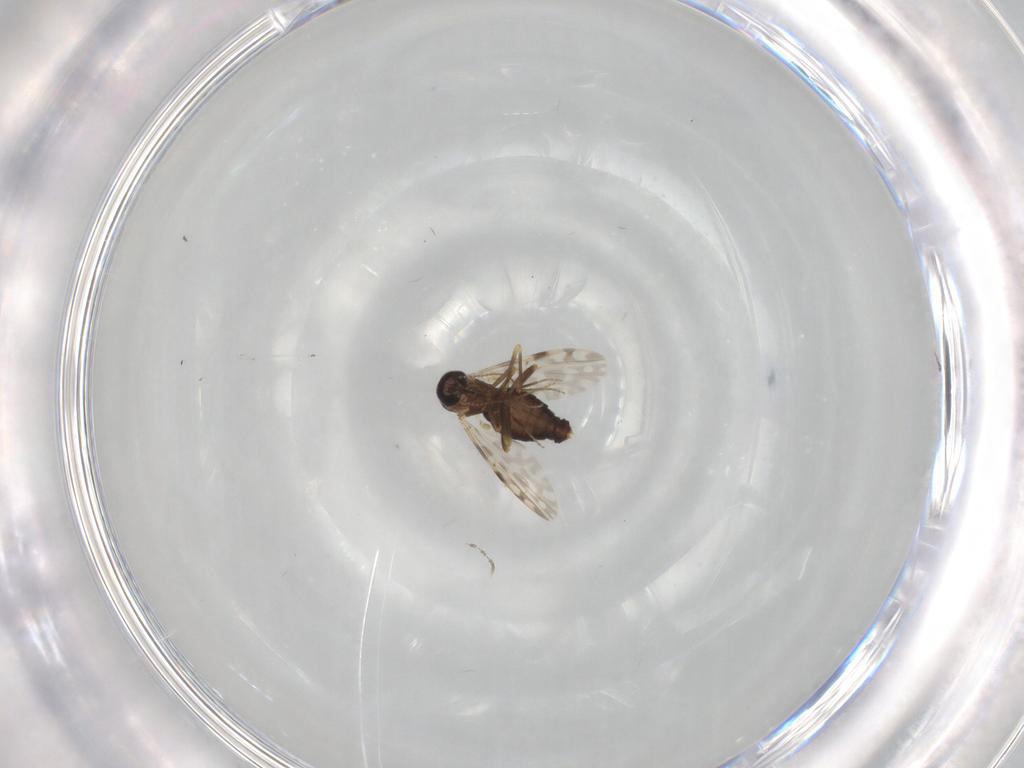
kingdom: Animalia
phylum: Arthropoda
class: Insecta
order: Diptera
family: Ceratopogonidae
